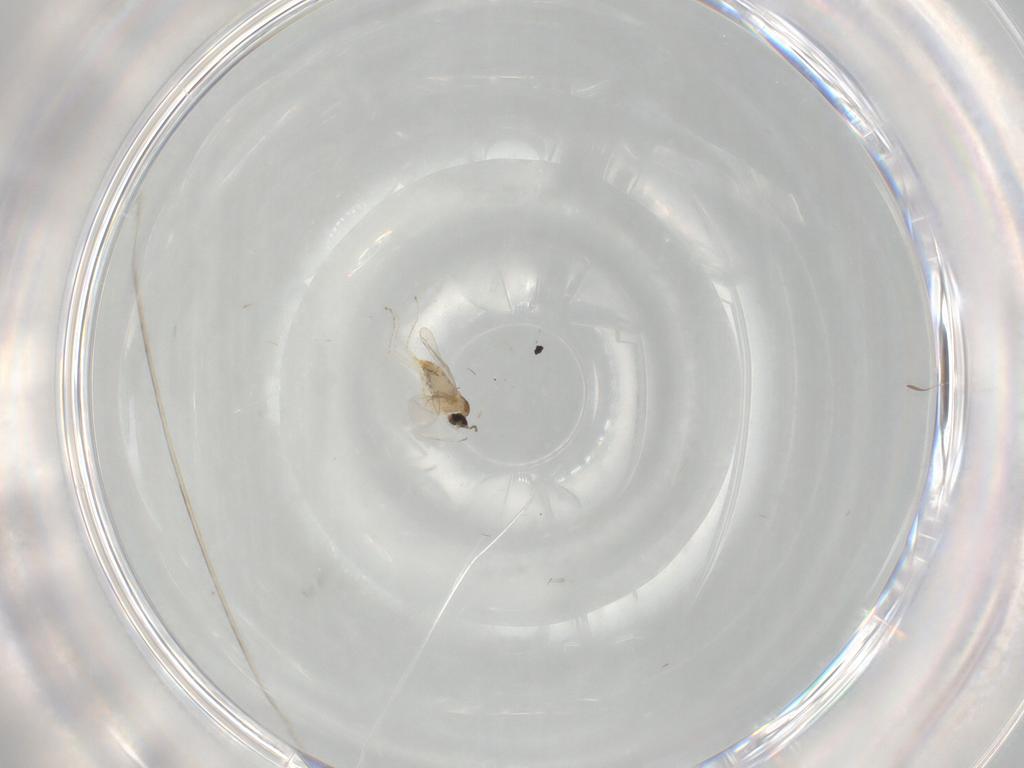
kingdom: Animalia
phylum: Arthropoda
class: Insecta
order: Diptera
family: Cecidomyiidae
